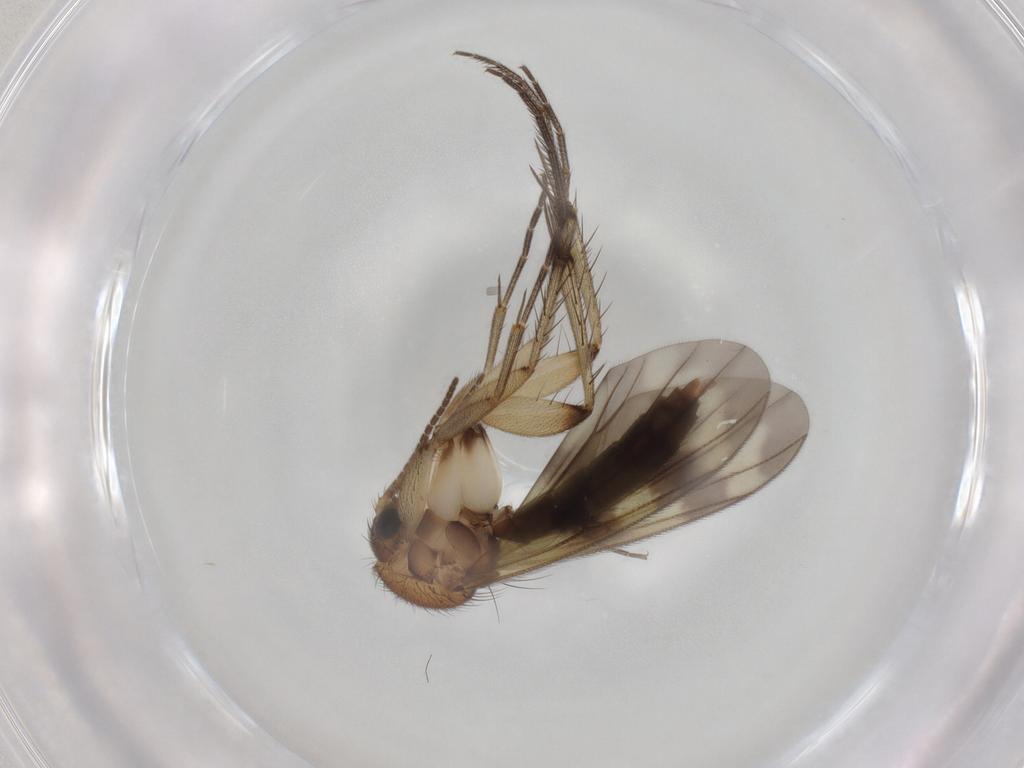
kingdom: Animalia
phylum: Arthropoda
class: Insecta
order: Diptera
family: Mycetophilidae
